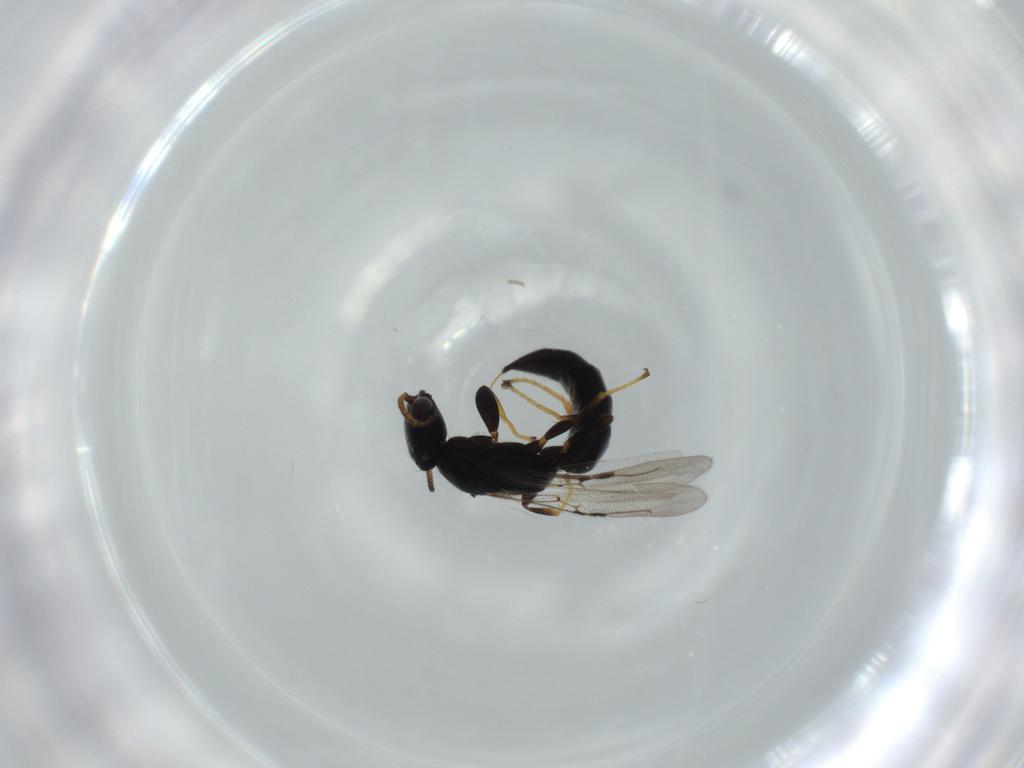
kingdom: Animalia
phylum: Arthropoda
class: Insecta
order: Hymenoptera
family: Bethylidae
